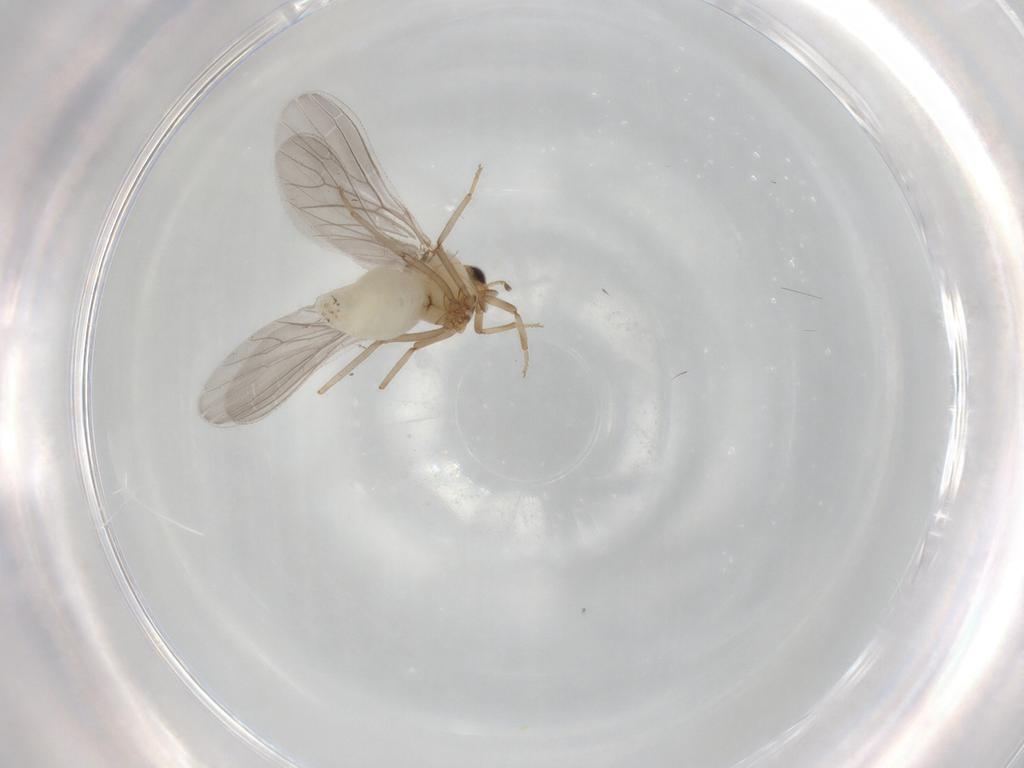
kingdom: Animalia
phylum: Arthropoda
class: Insecta
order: Neuroptera
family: Coniopterygidae
